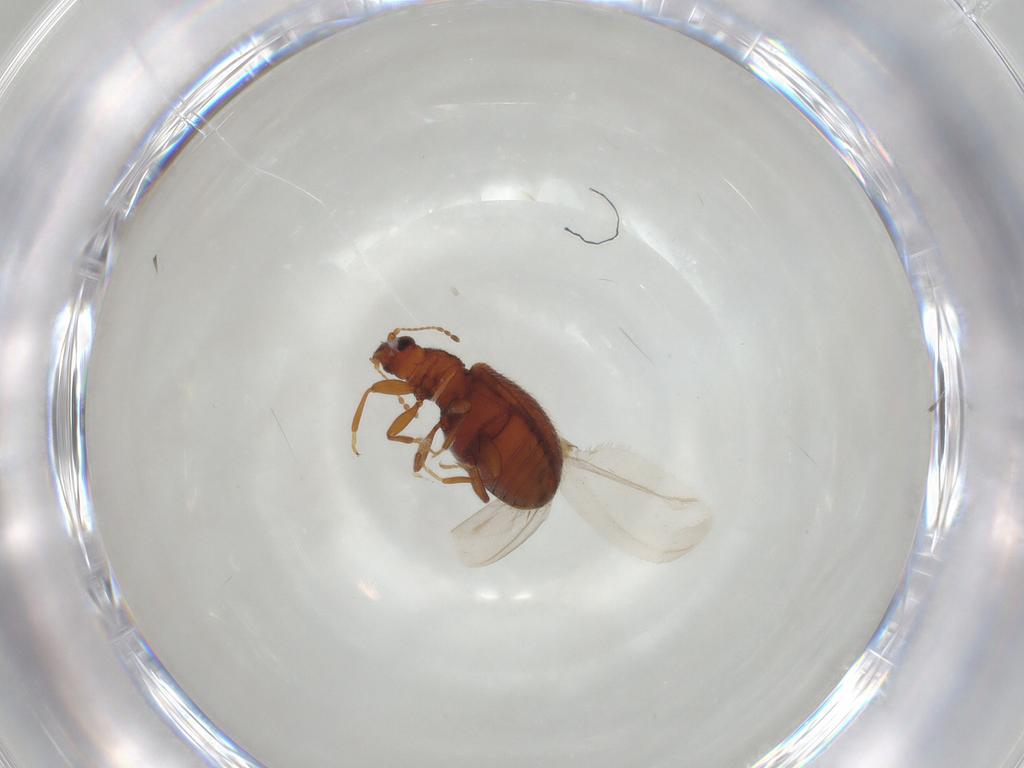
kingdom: Animalia
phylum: Arthropoda
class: Insecta
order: Coleoptera
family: Latridiidae
